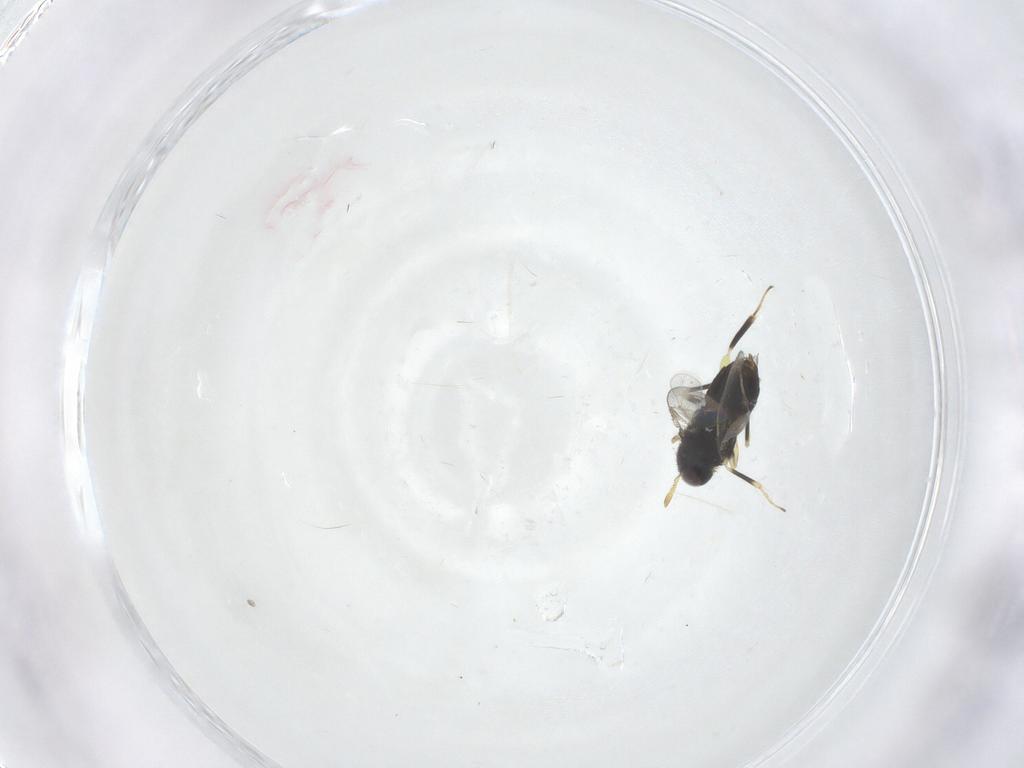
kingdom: Animalia
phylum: Arthropoda
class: Insecta
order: Hymenoptera
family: Aphelinidae
